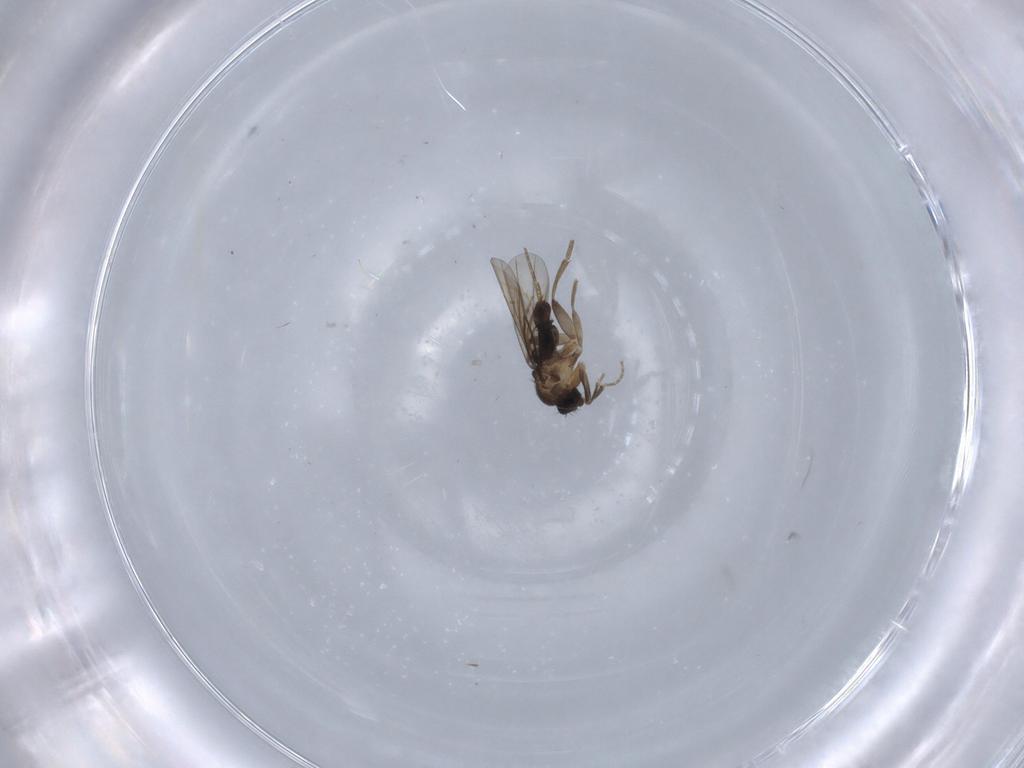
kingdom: Animalia
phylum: Arthropoda
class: Insecta
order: Diptera
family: Phoridae
